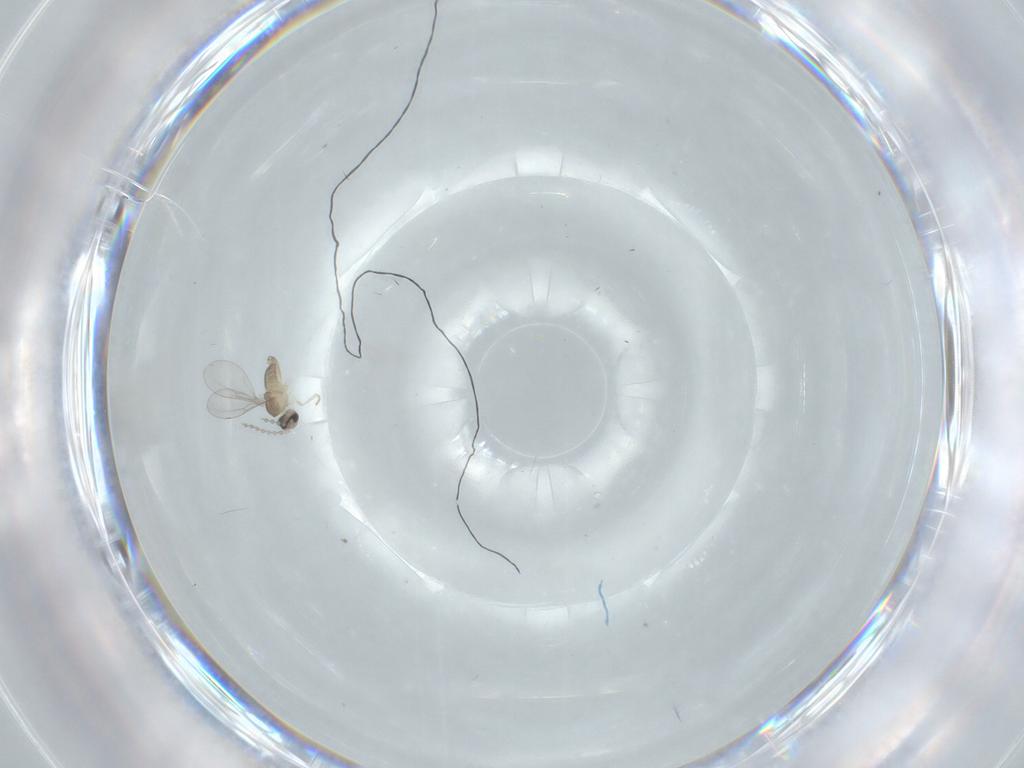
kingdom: Animalia
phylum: Arthropoda
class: Insecta
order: Diptera
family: Cecidomyiidae
